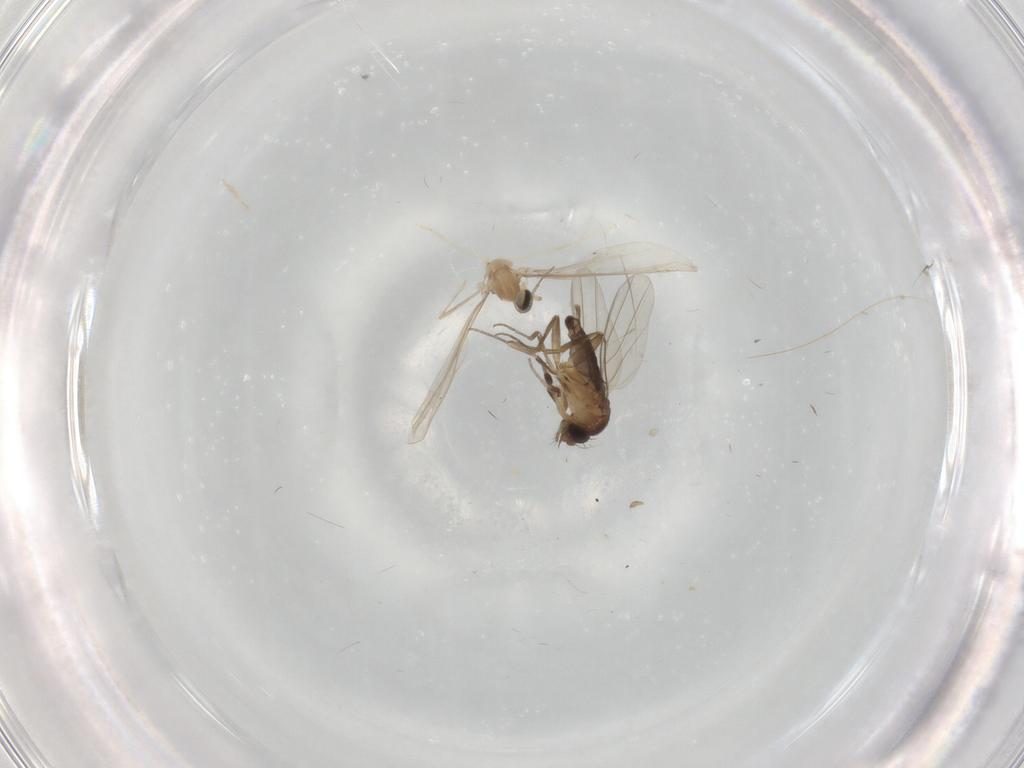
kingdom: Animalia
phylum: Arthropoda
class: Insecta
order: Diptera
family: Cecidomyiidae
